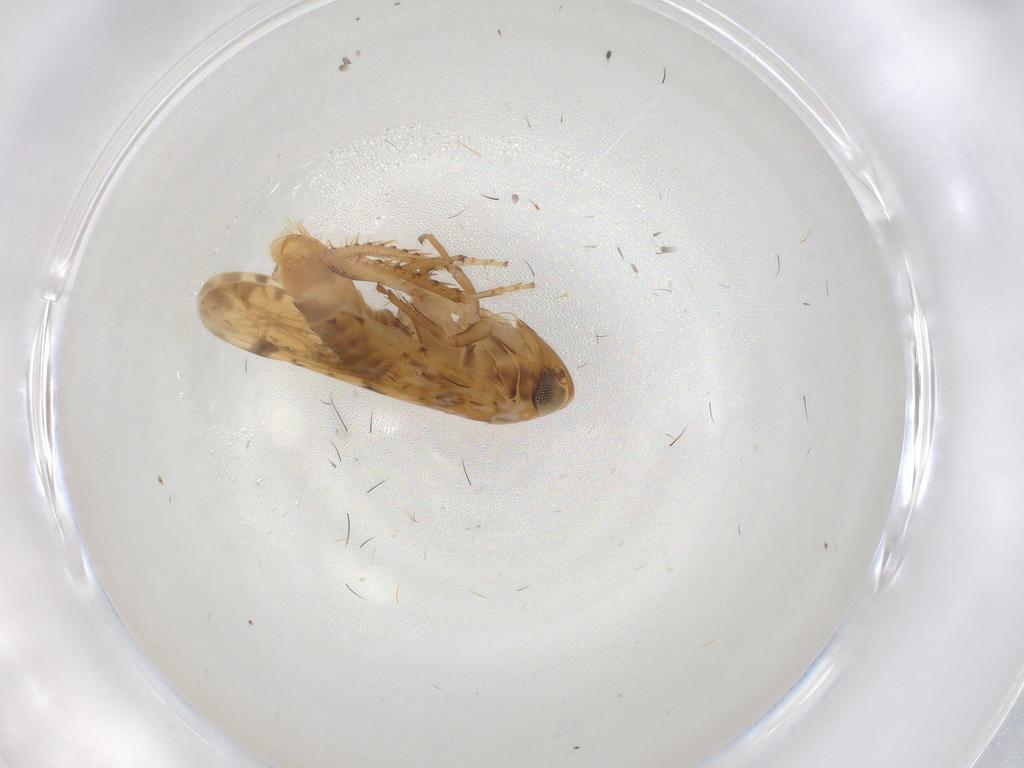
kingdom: Animalia
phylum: Arthropoda
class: Insecta
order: Hemiptera
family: Cicadellidae
